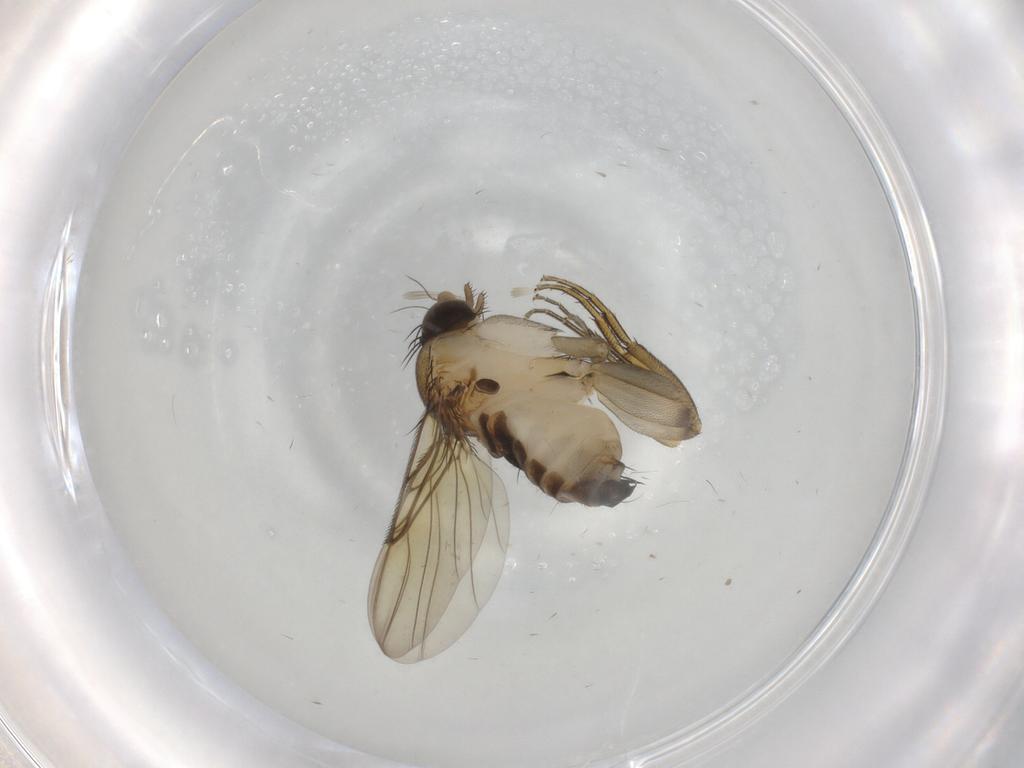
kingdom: Animalia
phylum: Arthropoda
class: Insecta
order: Diptera
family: Phoridae
